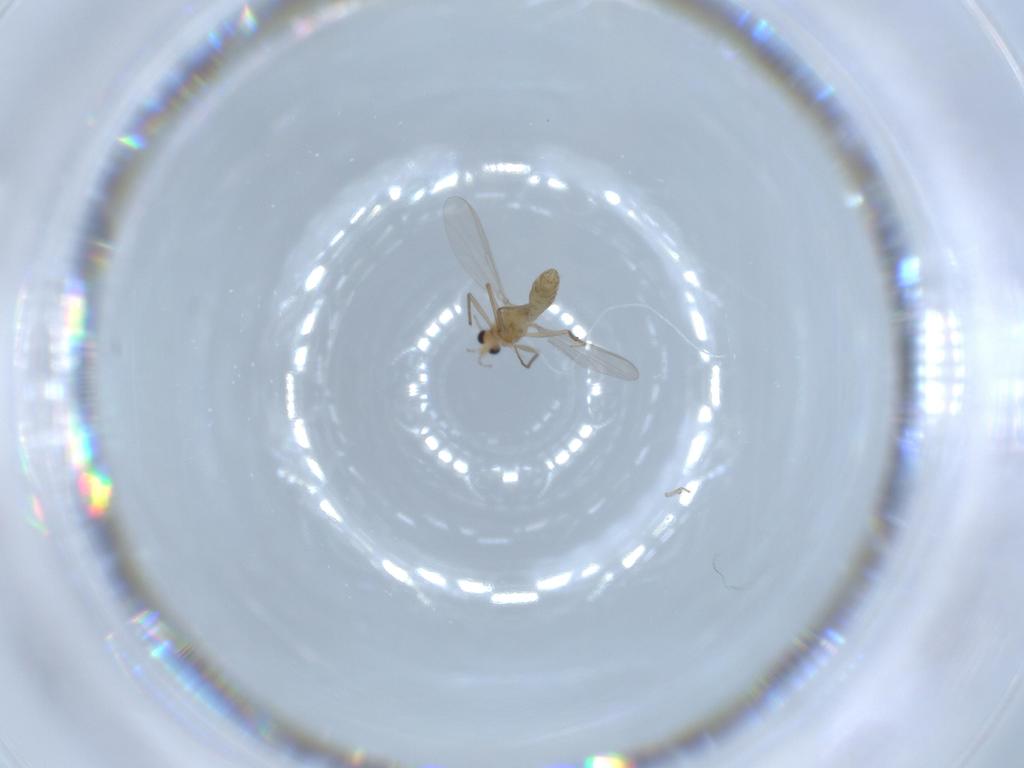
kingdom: Animalia
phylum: Arthropoda
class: Insecta
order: Diptera
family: Chironomidae
